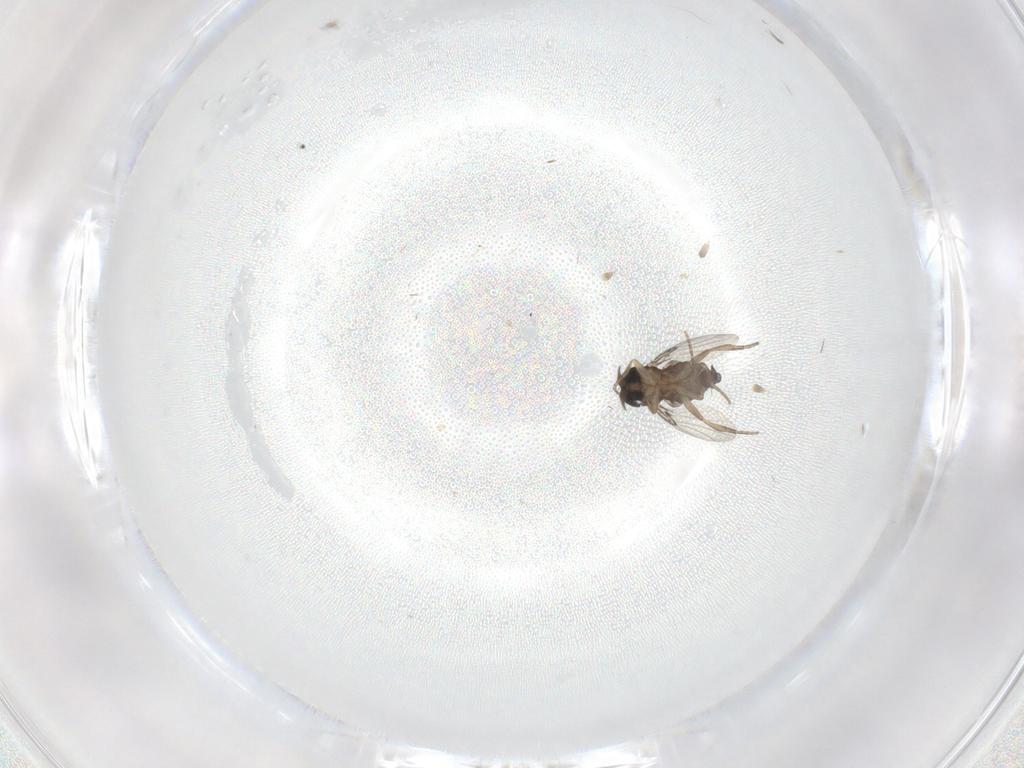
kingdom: Animalia
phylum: Arthropoda
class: Insecta
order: Diptera
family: Phoridae
